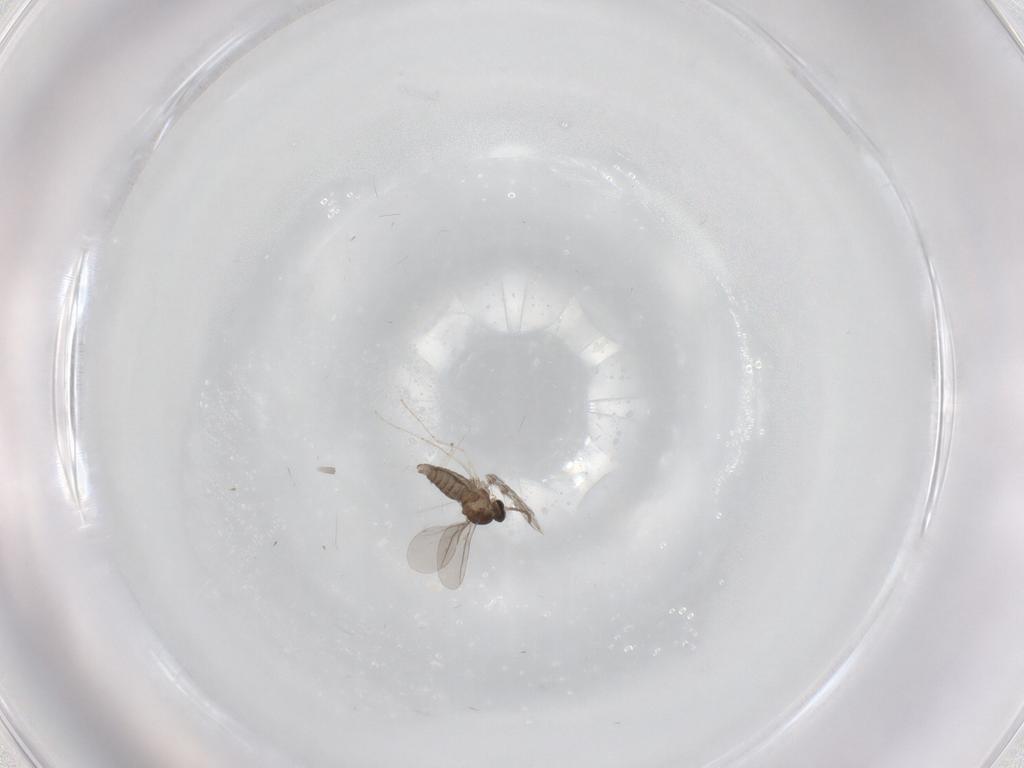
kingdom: Animalia
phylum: Arthropoda
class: Insecta
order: Diptera
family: Psychodidae
